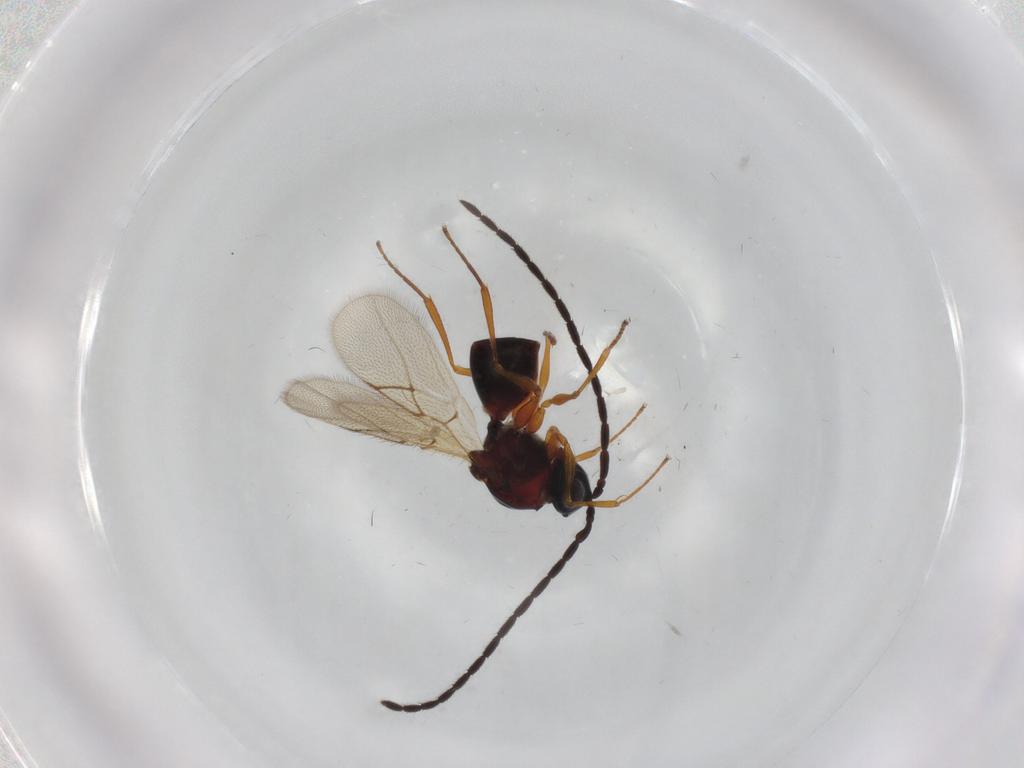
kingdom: Animalia
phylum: Arthropoda
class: Insecta
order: Hymenoptera
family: Figitidae
